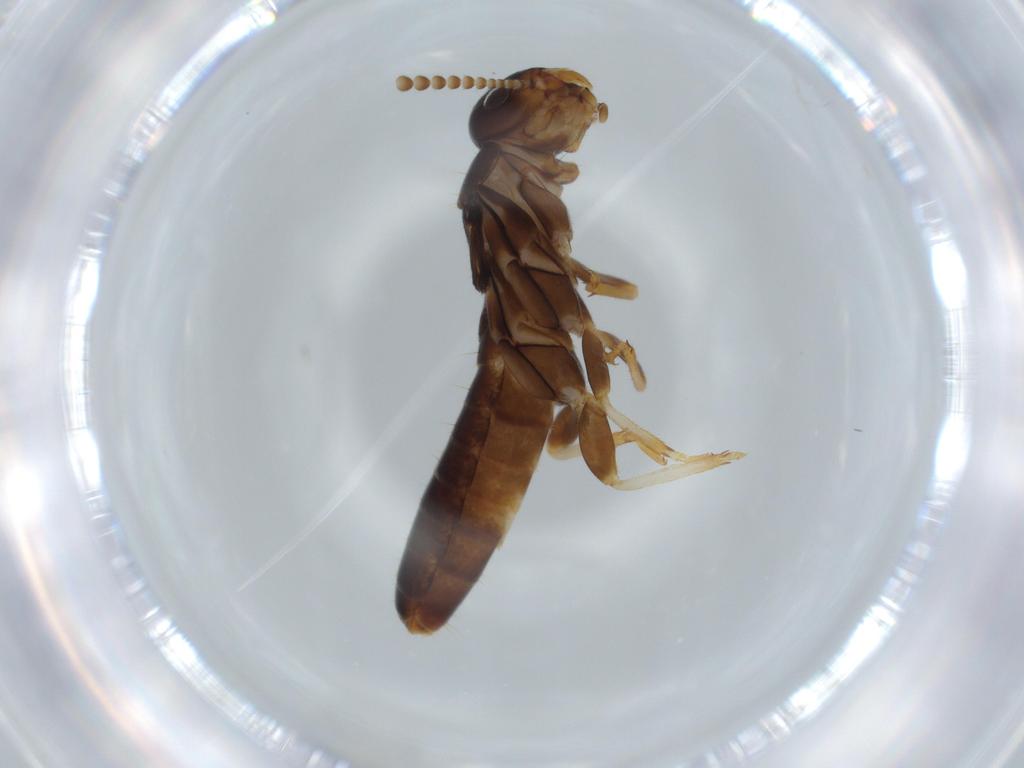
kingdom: Animalia
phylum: Arthropoda
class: Insecta
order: Blattodea
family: Kalotermitidae
